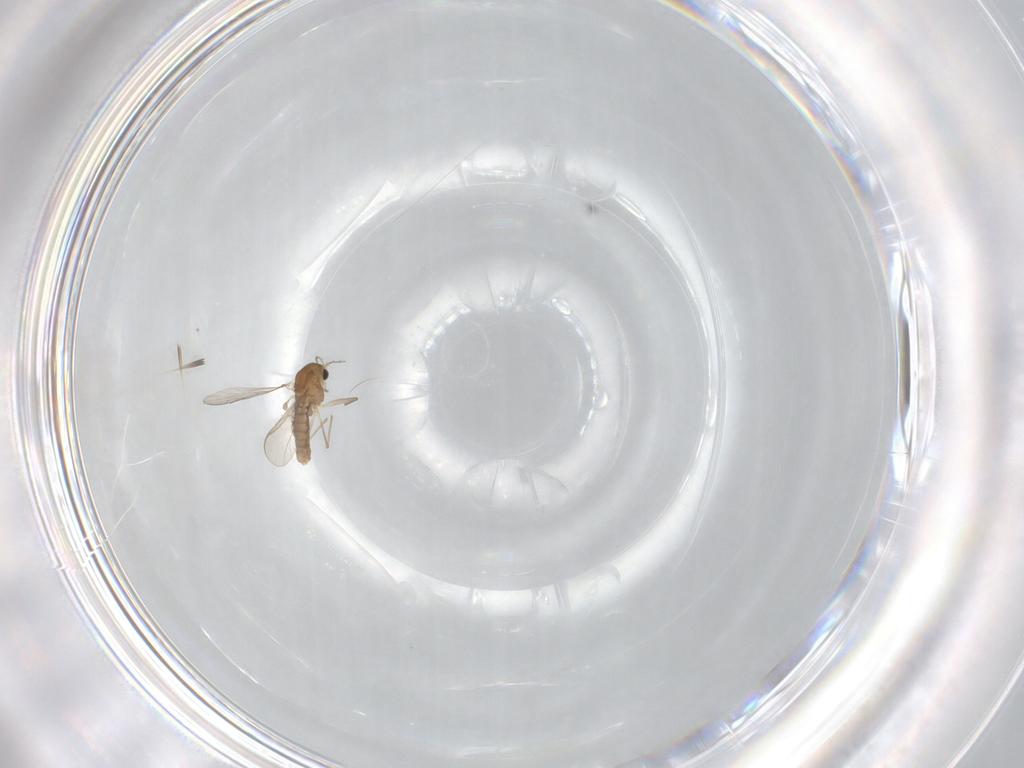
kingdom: Animalia
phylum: Arthropoda
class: Insecta
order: Diptera
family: Chironomidae
